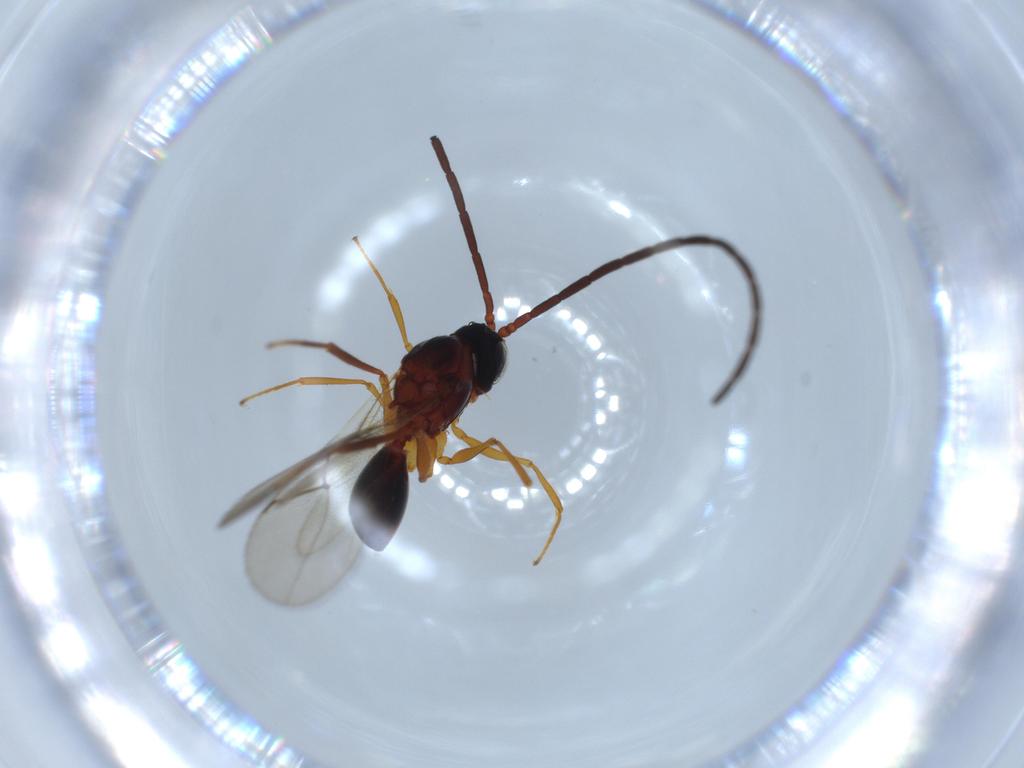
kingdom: Animalia
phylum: Arthropoda
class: Insecta
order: Hymenoptera
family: Figitidae
